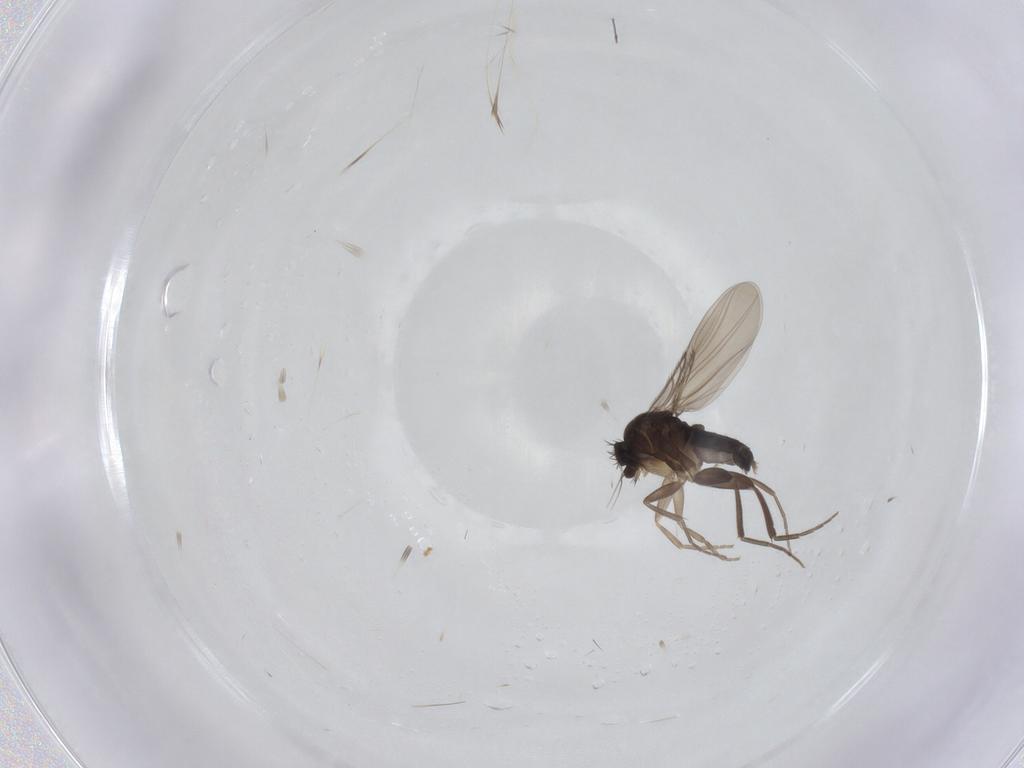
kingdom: Animalia
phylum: Arthropoda
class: Insecta
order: Diptera
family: Phoridae
